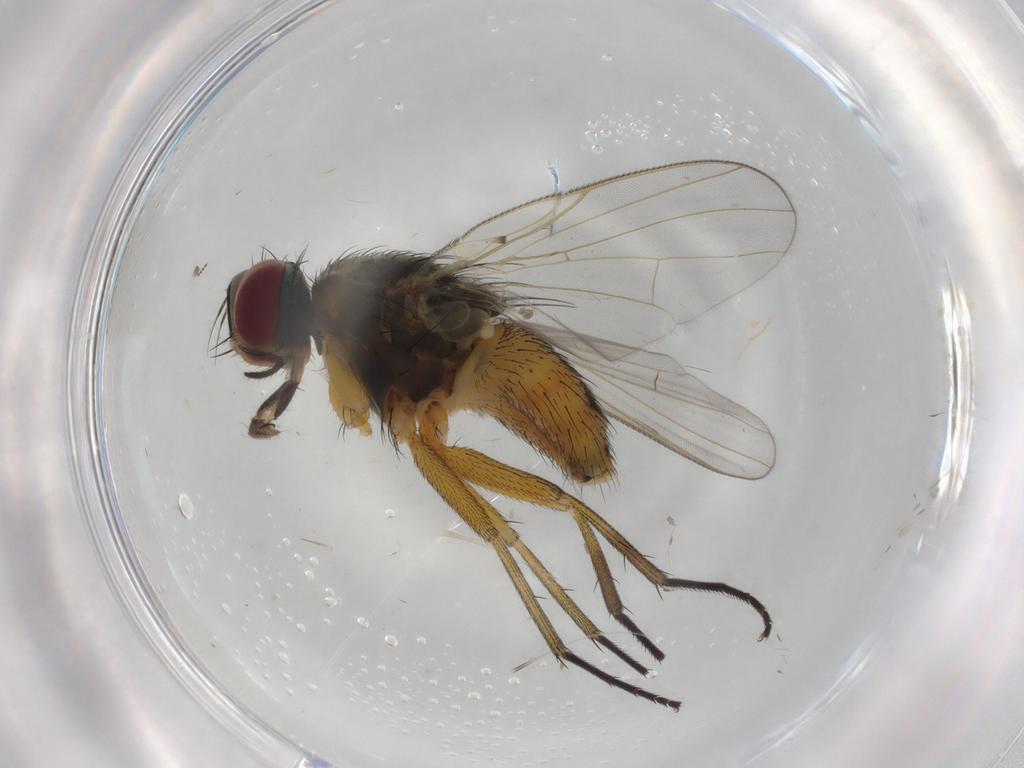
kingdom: Animalia
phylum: Arthropoda
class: Insecta
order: Diptera
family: Muscidae
